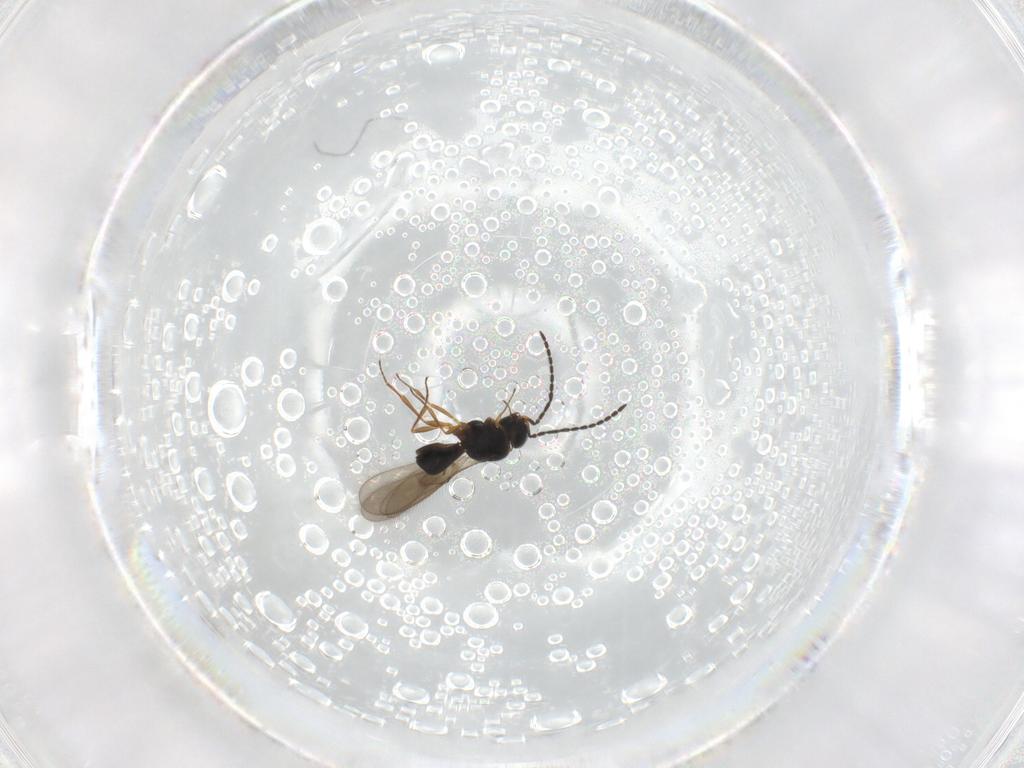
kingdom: Animalia
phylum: Arthropoda
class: Insecta
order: Hymenoptera
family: Scelionidae
